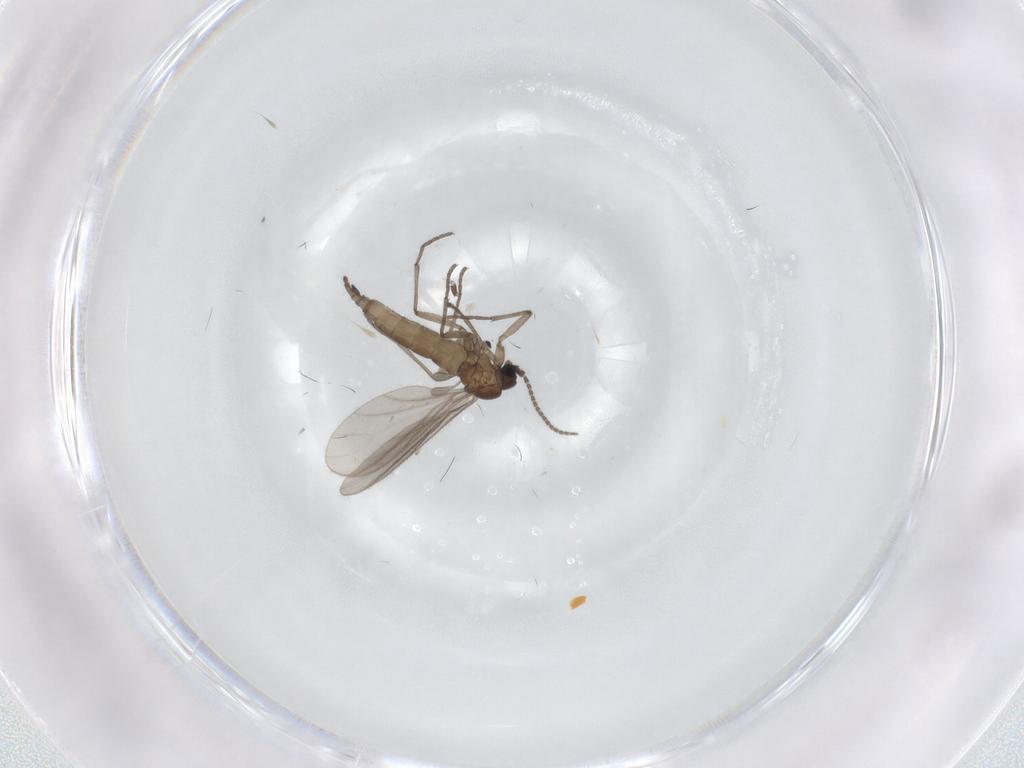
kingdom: Animalia
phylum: Arthropoda
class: Insecta
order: Diptera
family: Sciaridae
